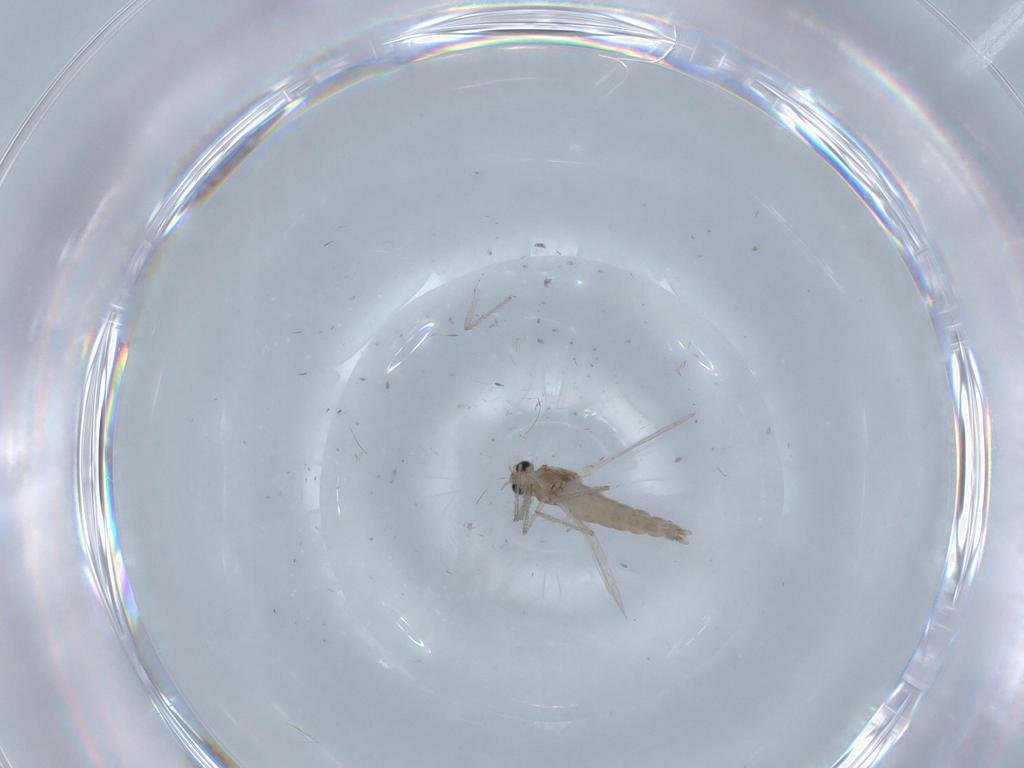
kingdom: Animalia
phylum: Arthropoda
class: Insecta
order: Diptera
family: Chironomidae
